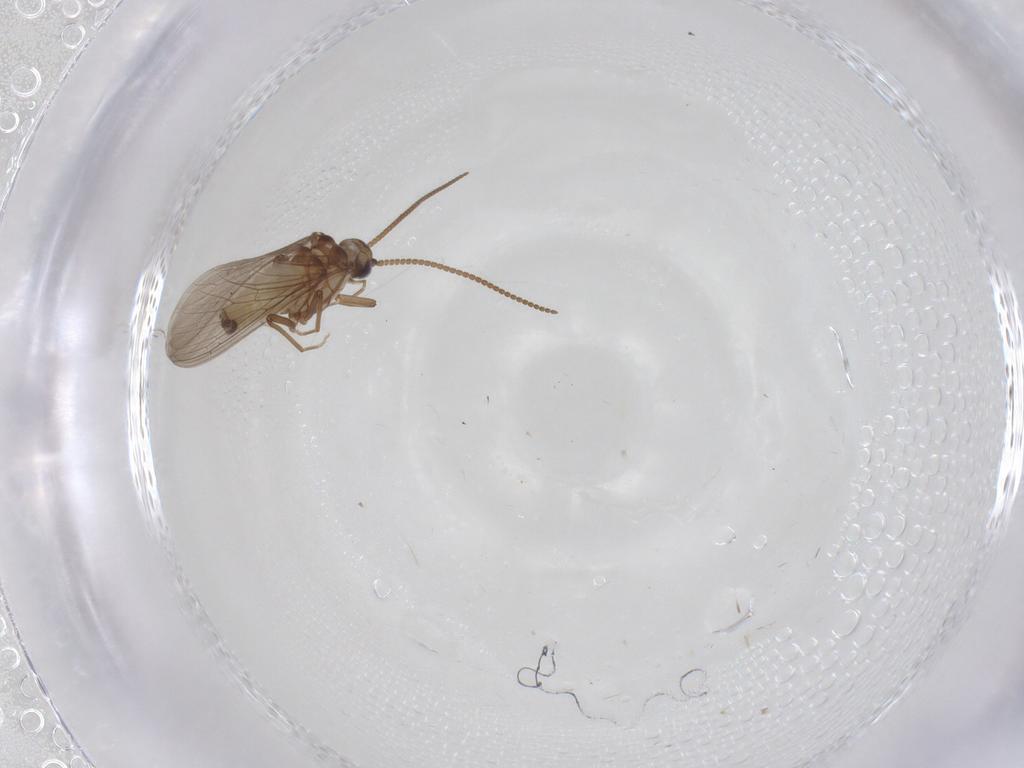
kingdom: Animalia
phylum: Arthropoda
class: Insecta
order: Neuroptera
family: Coniopterygidae
